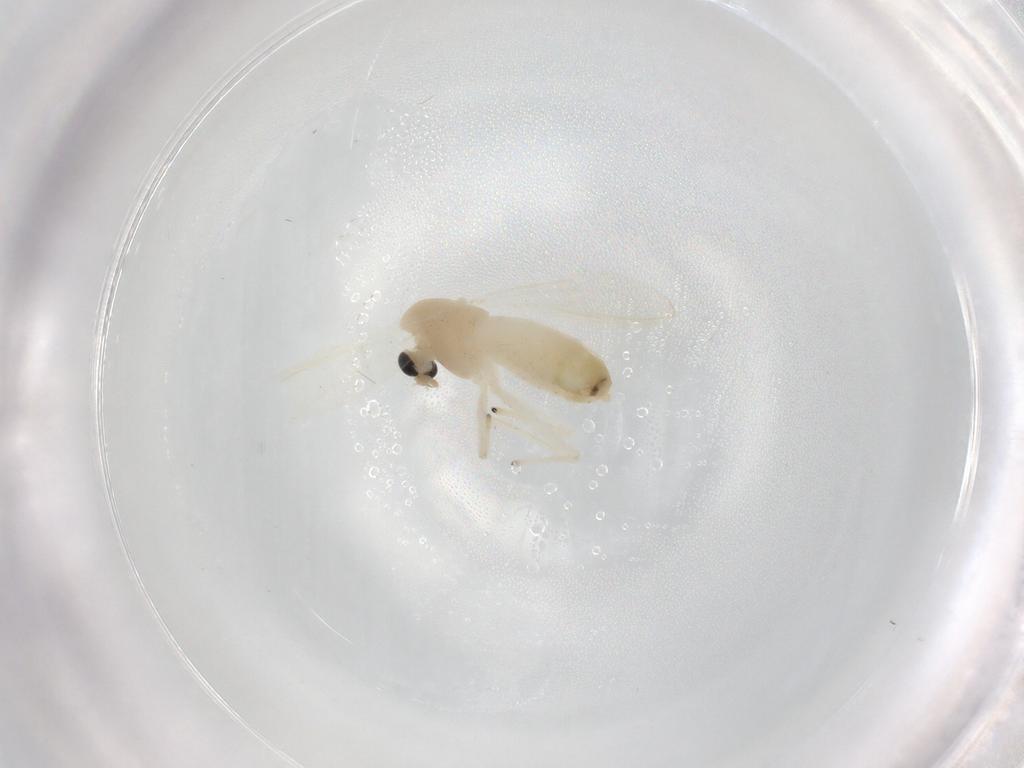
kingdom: Animalia
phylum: Arthropoda
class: Insecta
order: Diptera
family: Chironomidae
